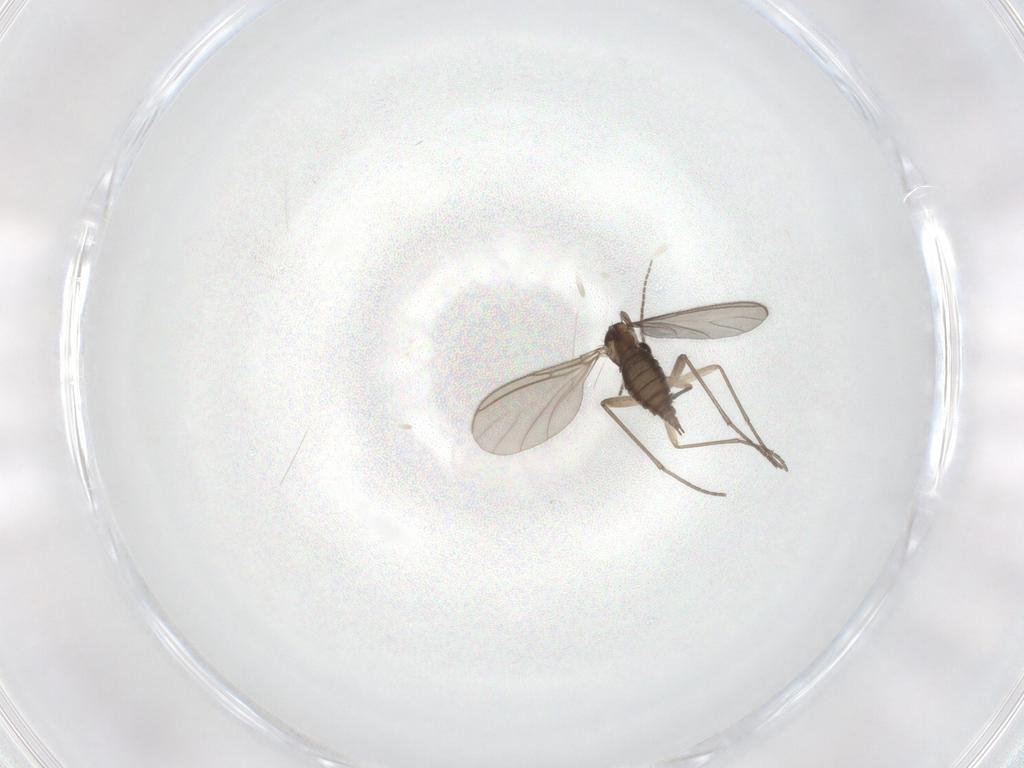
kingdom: Animalia
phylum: Arthropoda
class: Insecta
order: Diptera
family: Sciaridae
